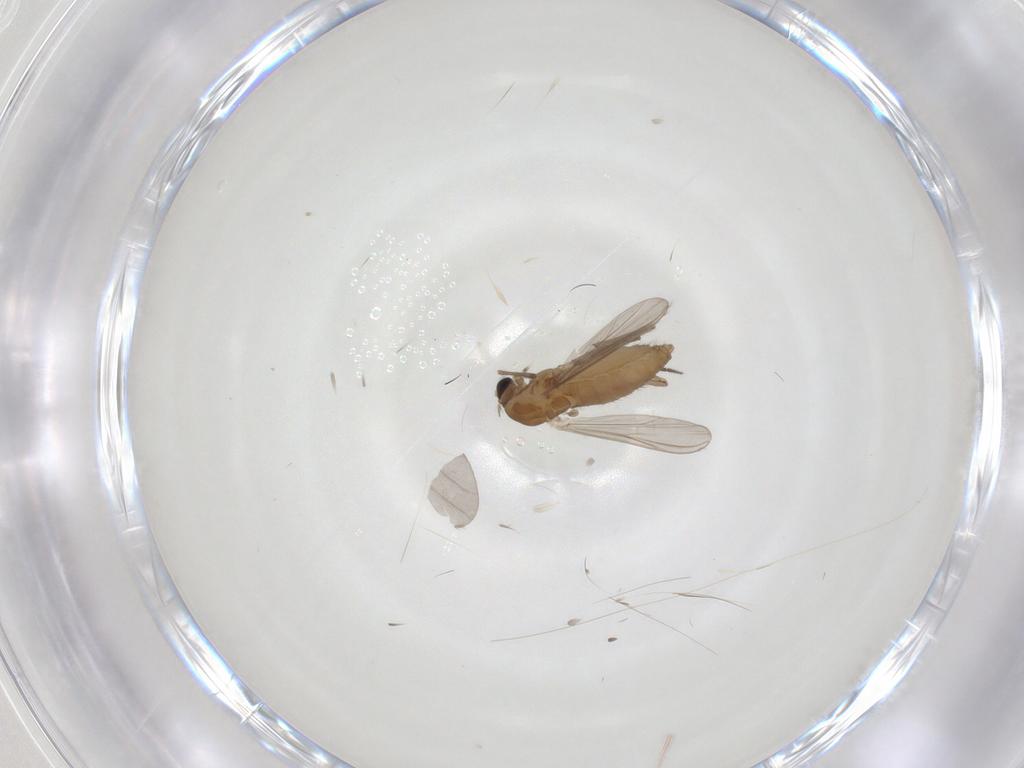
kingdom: Animalia
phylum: Arthropoda
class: Insecta
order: Diptera
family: Chironomidae
